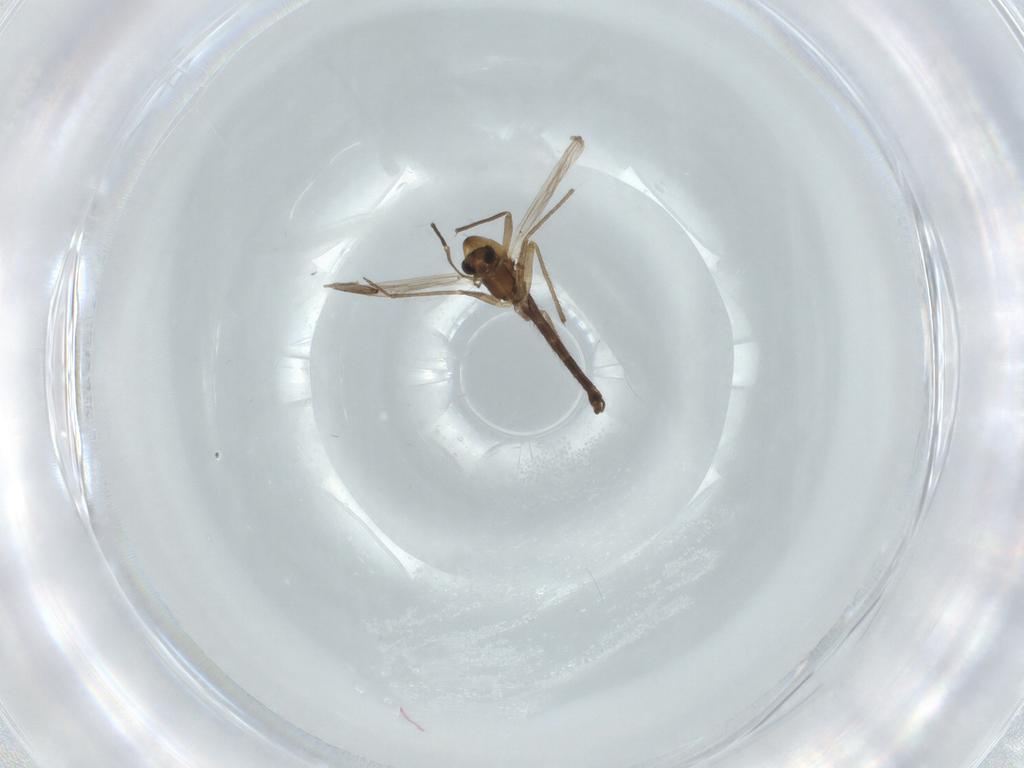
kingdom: Animalia
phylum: Arthropoda
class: Insecta
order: Diptera
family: Chironomidae
